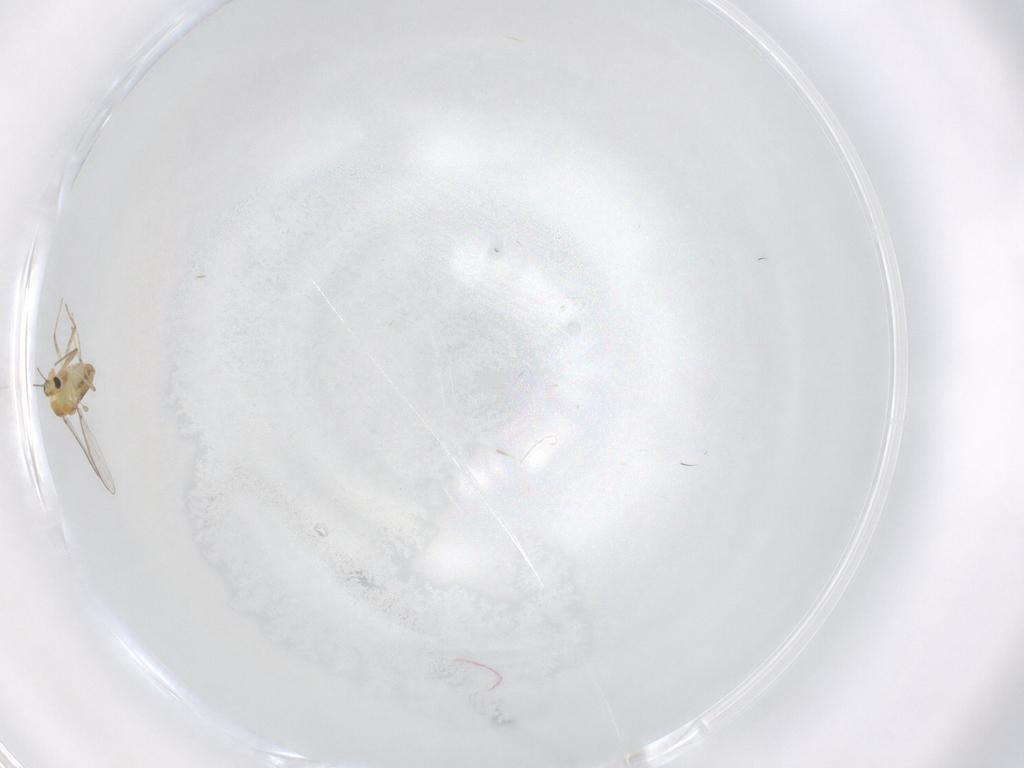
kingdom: Animalia
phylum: Arthropoda
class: Insecta
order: Diptera
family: Chironomidae
